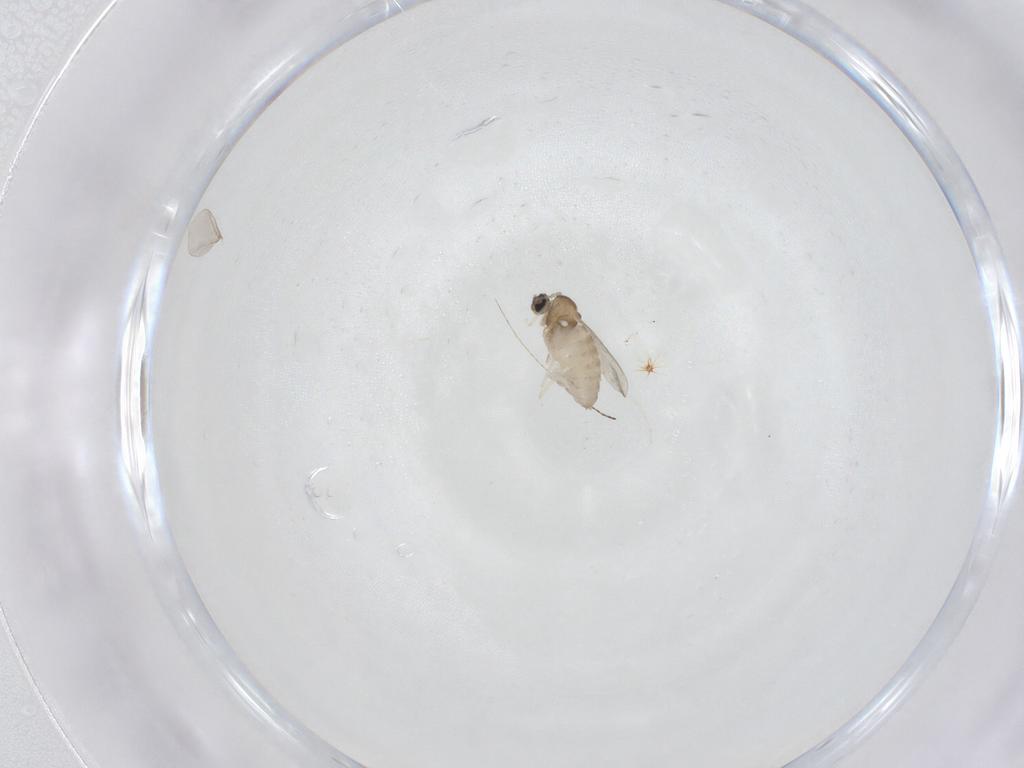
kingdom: Animalia
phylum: Arthropoda
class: Insecta
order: Diptera
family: Cecidomyiidae
